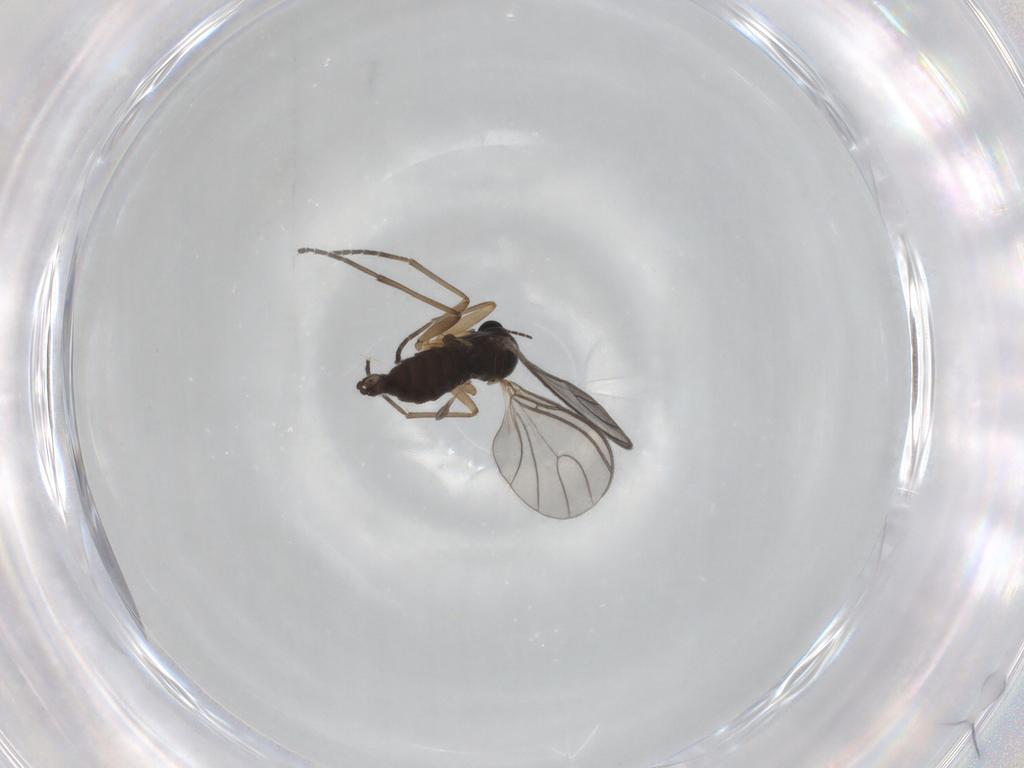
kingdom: Animalia
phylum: Arthropoda
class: Insecta
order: Diptera
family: Sciaridae
